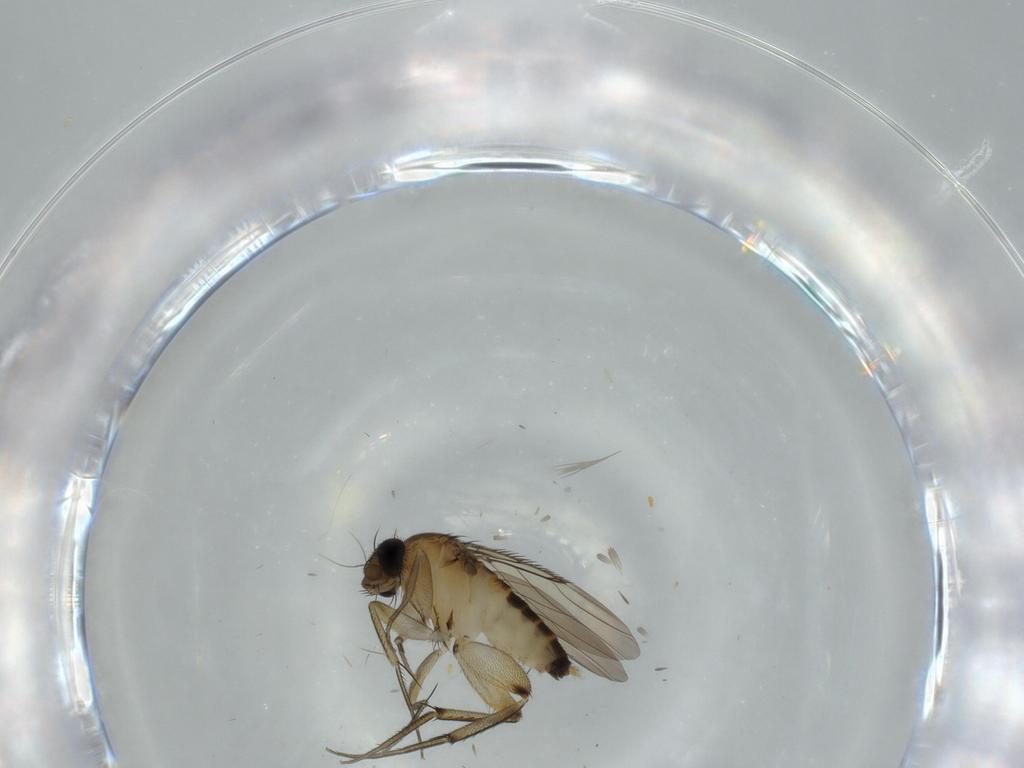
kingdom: Animalia
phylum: Arthropoda
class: Insecta
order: Diptera
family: Phoridae
